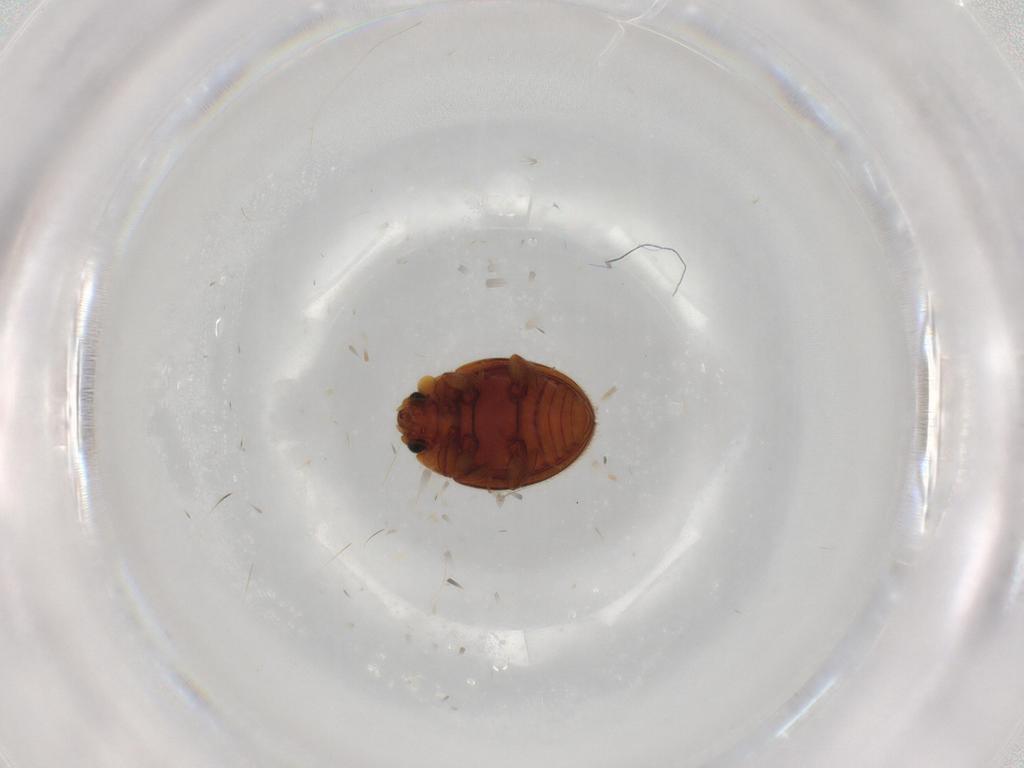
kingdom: Animalia
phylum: Arthropoda
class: Insecta
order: Coleoptera
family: Euxestidae
